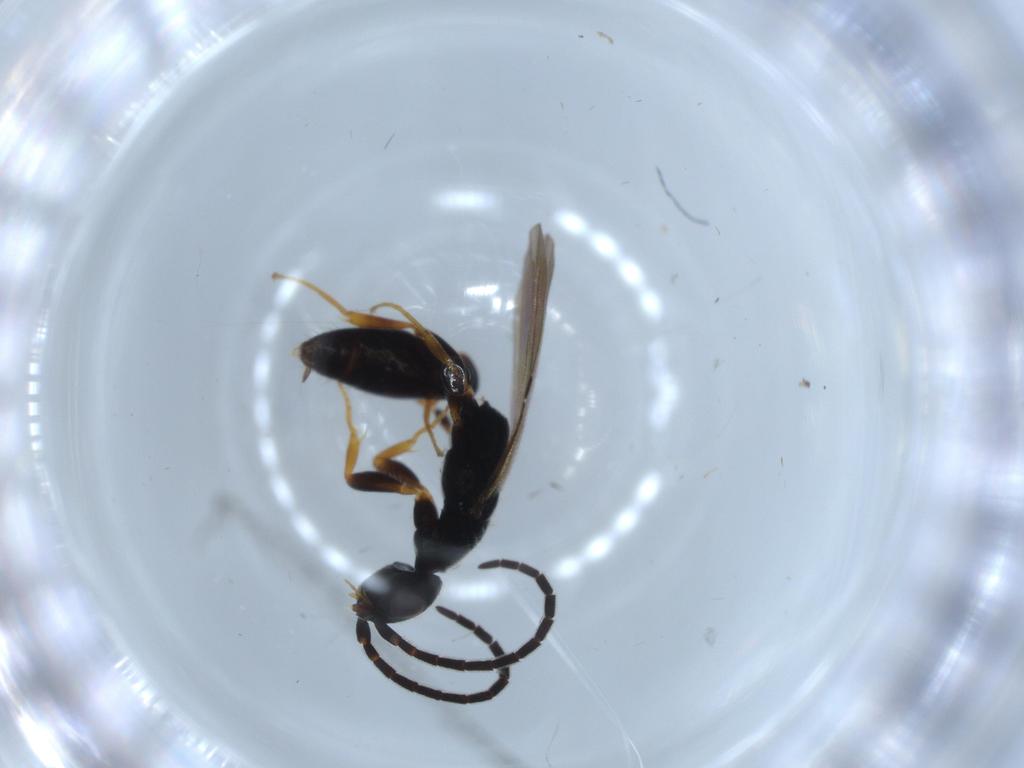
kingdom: Animalia
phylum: Arthropoda
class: Insecta
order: Hymenoptera
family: Bethylidae
